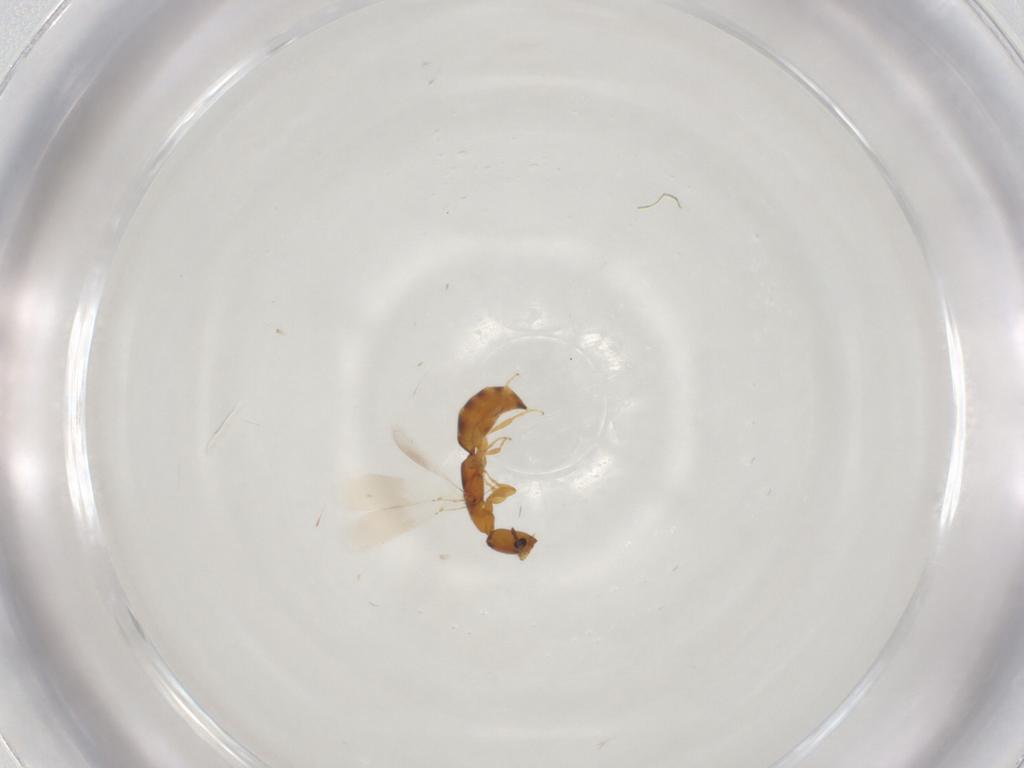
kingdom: Animalia
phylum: Arthropoda
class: Insecta
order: Hymenoptera
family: Bethylidae
